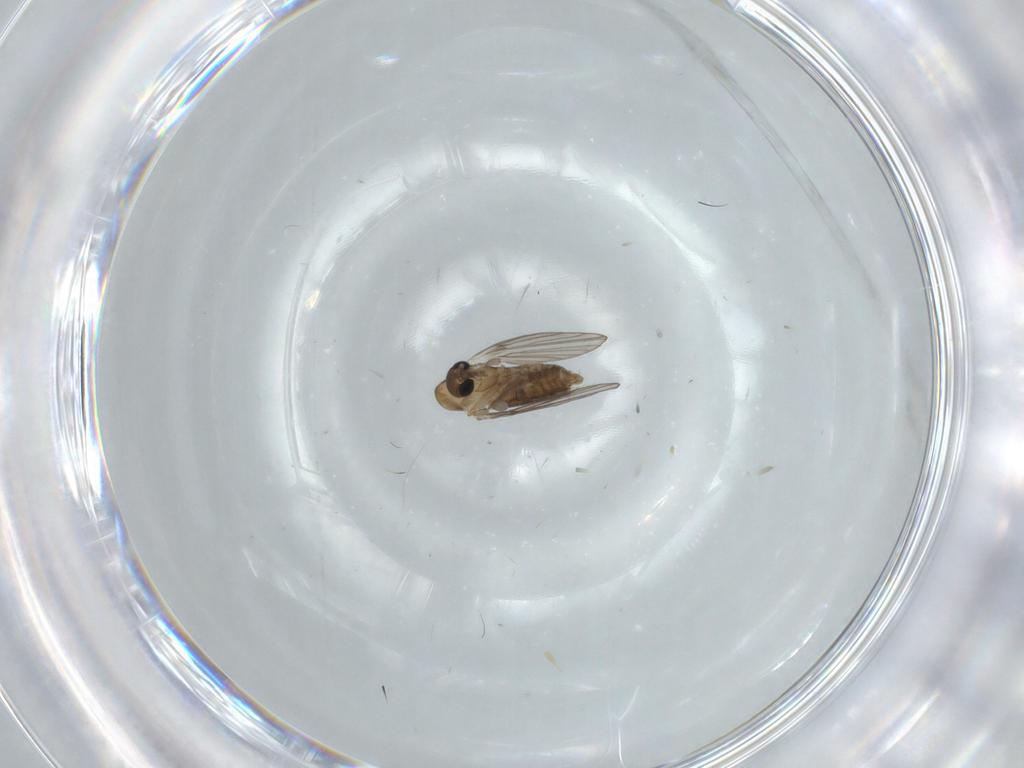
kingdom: Animalia
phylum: Arthropoda
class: Insecta
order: Diptera
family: Psychodidae
